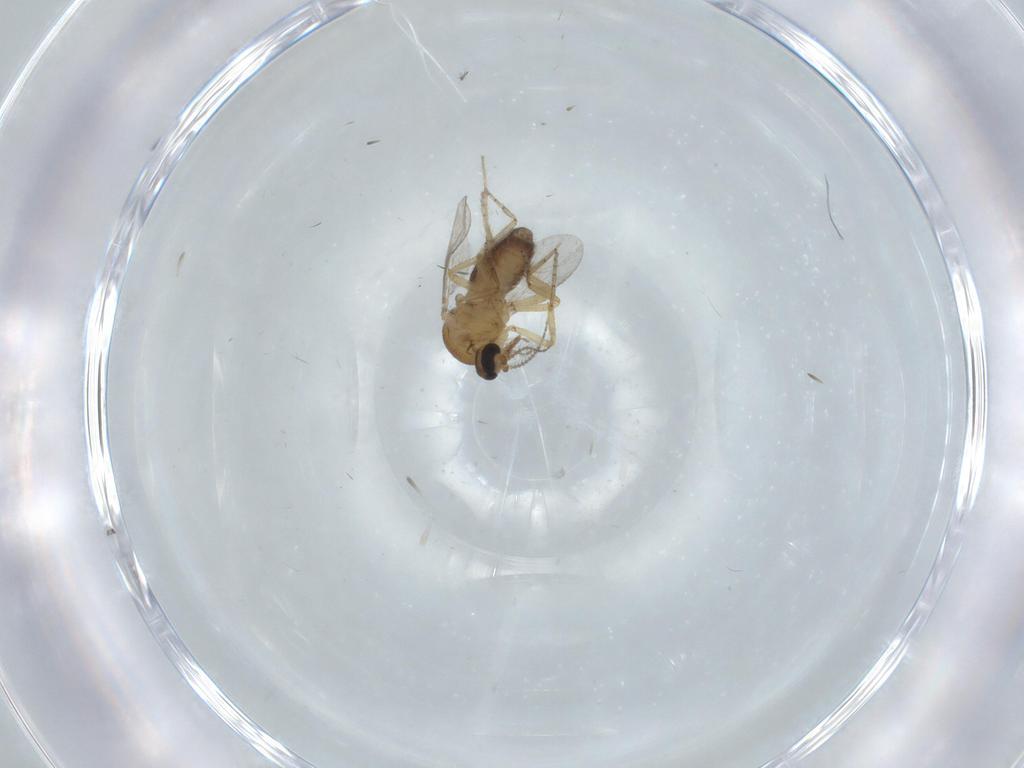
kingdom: Animalia
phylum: Arthropoda
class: Insecta
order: Diptera
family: Ceratopogonidae
